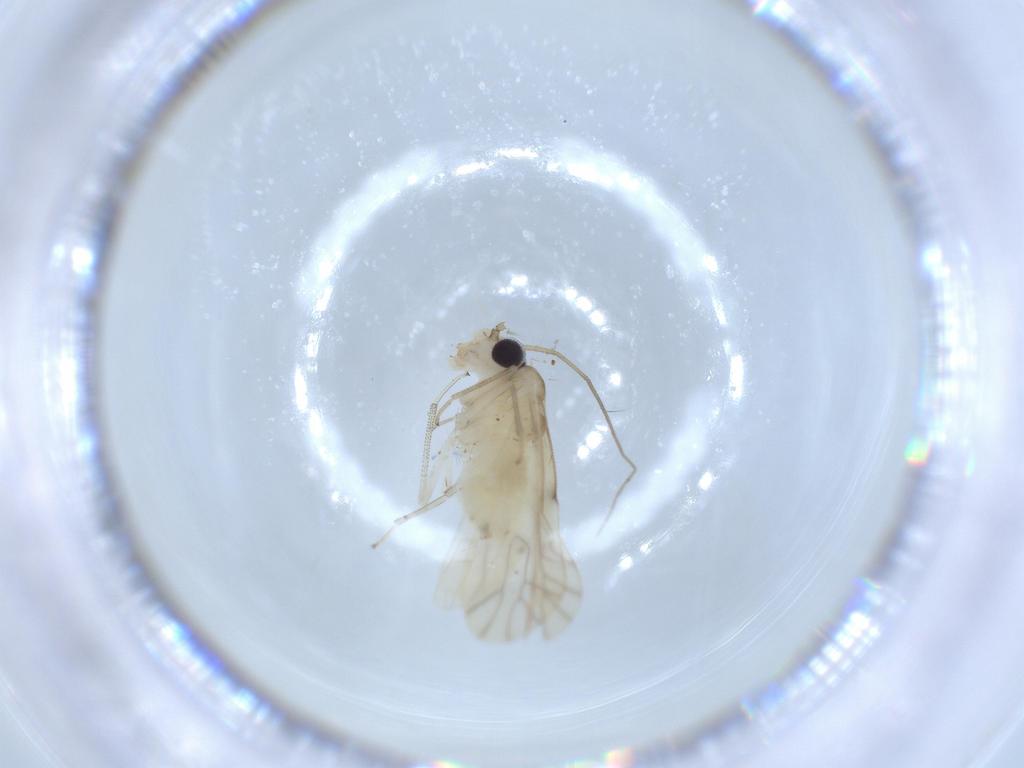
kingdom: Animalia
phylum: Arthropoda
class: Insecta
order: Psocodea
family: Caeciliusidae
